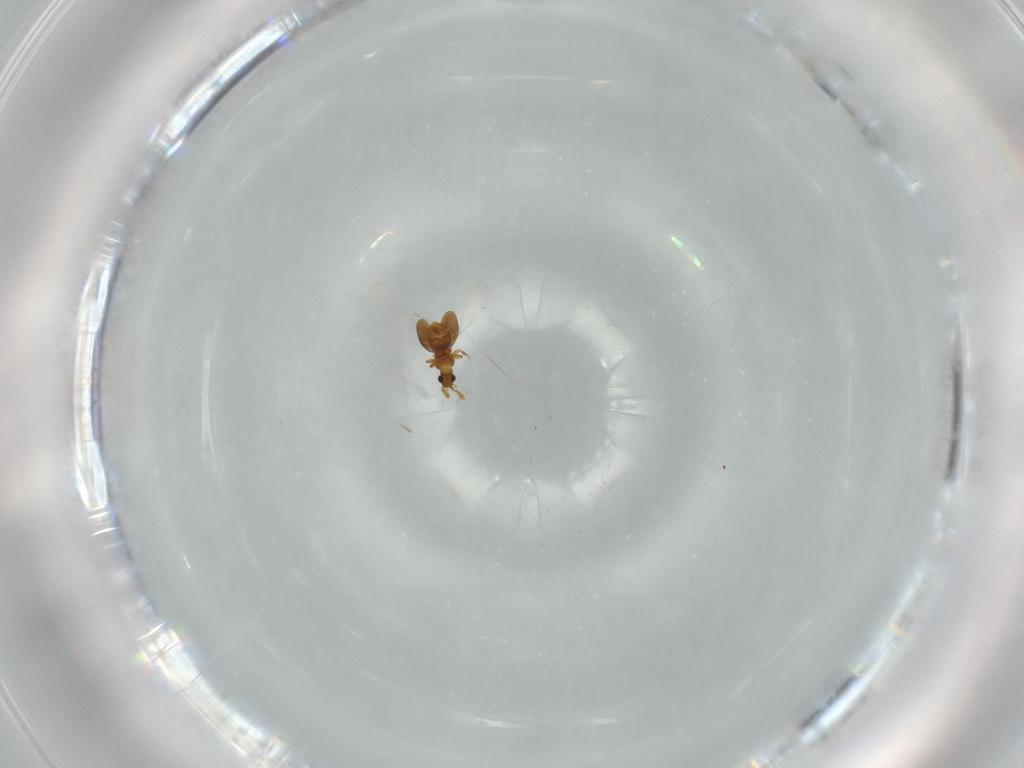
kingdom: Animalia
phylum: Arthropoda
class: Insecta
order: Coleoptera
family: Staphylinidae
